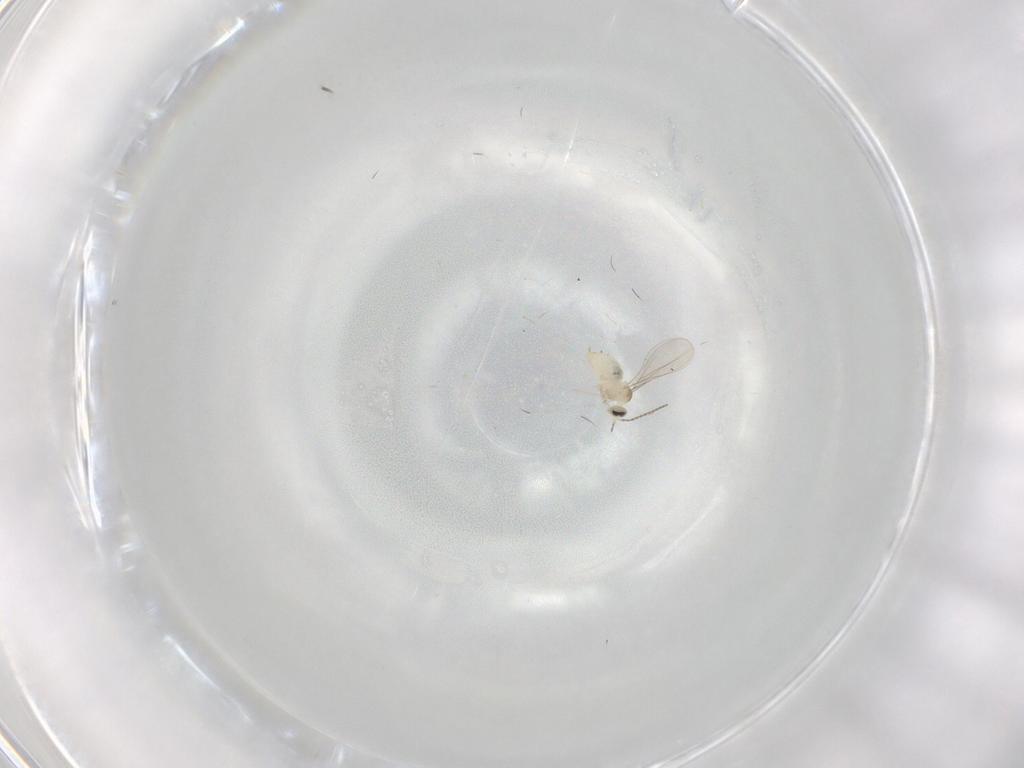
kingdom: Animalia
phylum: Arthropoda
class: Insecta
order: Diptera
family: Cecidomyiidae
